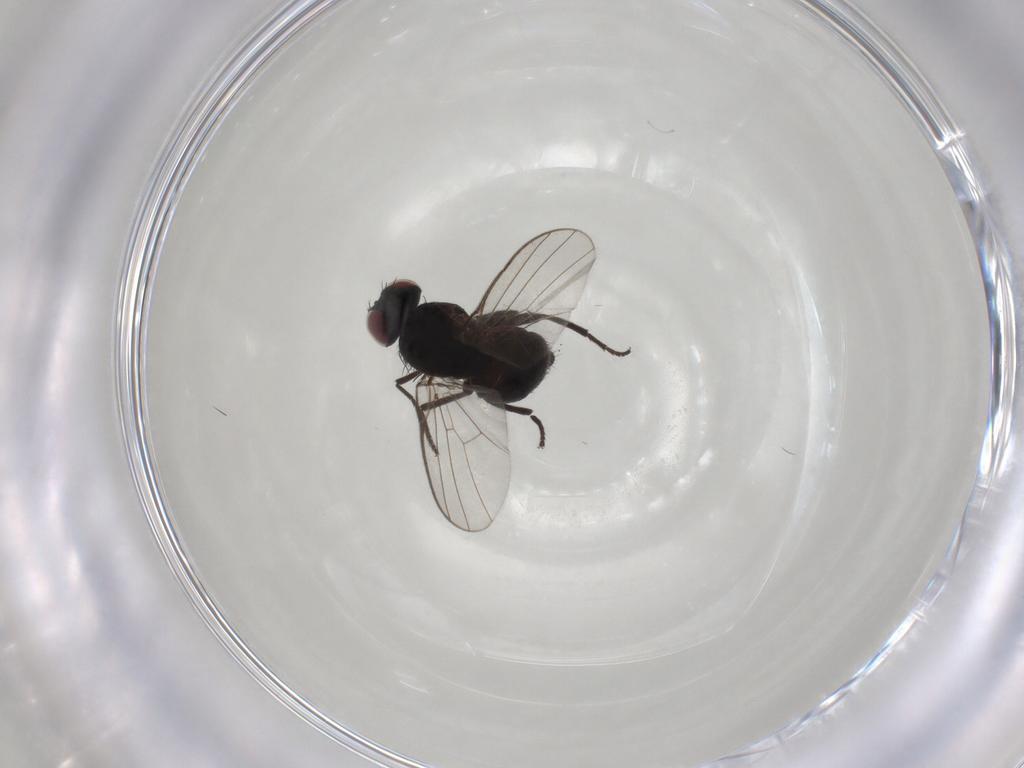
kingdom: Animalia
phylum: Arthropoda
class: Insecta
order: Diptera
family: Agromyzidae
